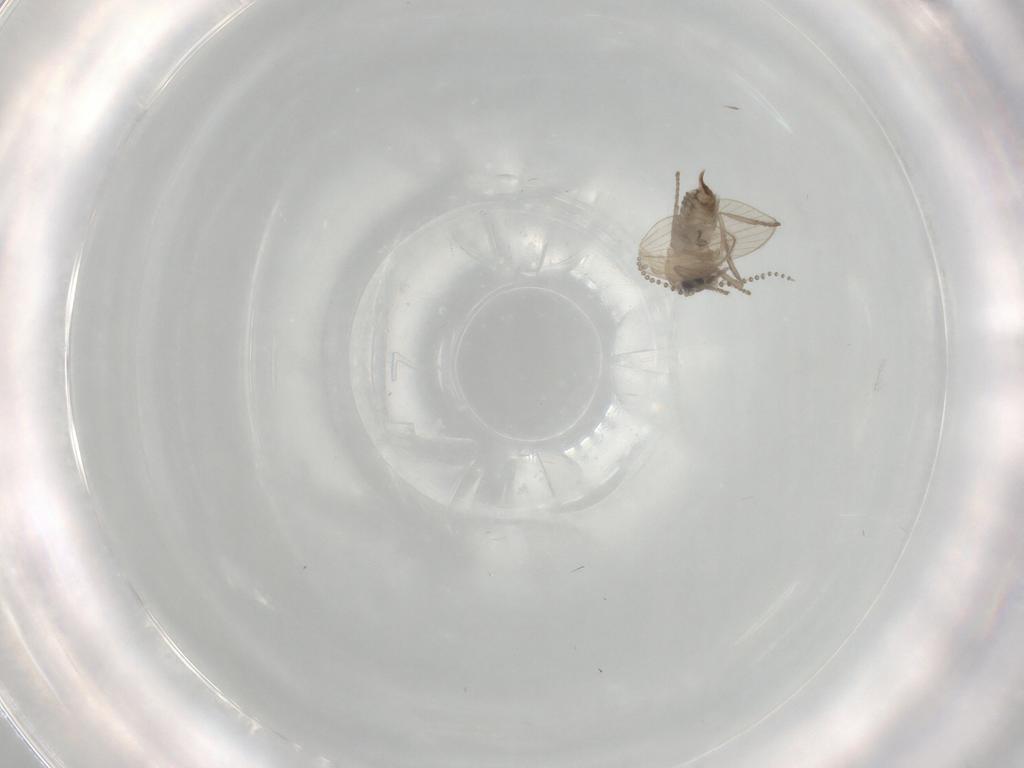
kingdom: Animalia
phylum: Arthropoda
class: Insecta
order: Diptera
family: Psychodidae
